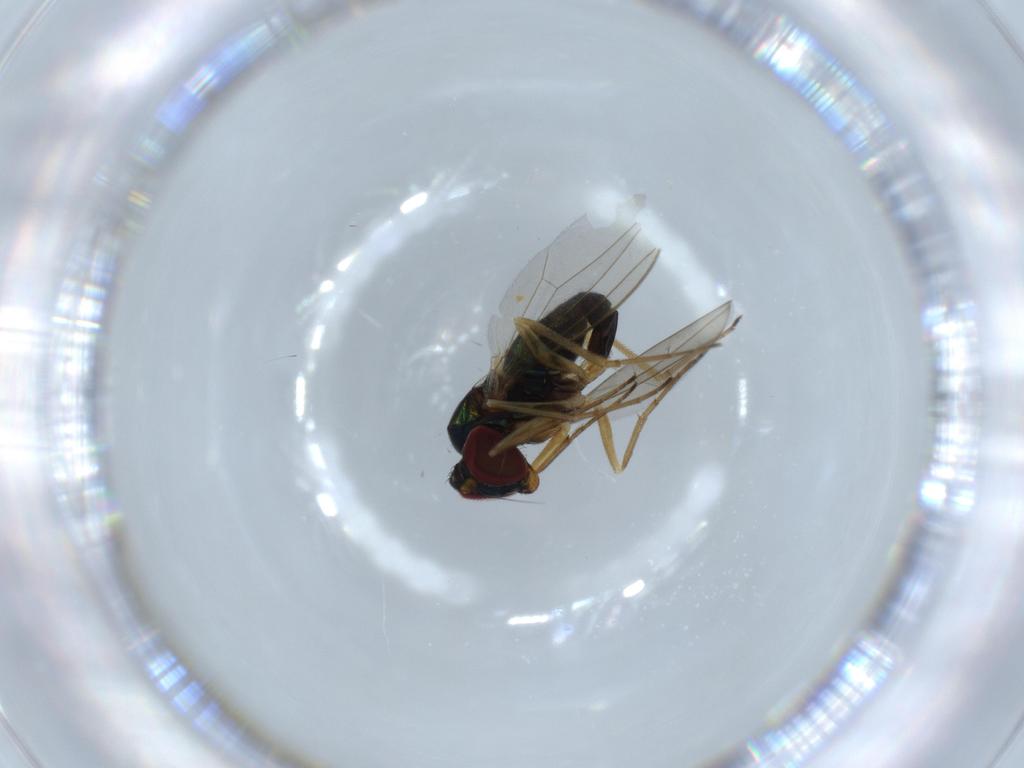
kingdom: Animalia
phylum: Arthropoda
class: Insecta
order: Diptera
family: Dolichopodidae
